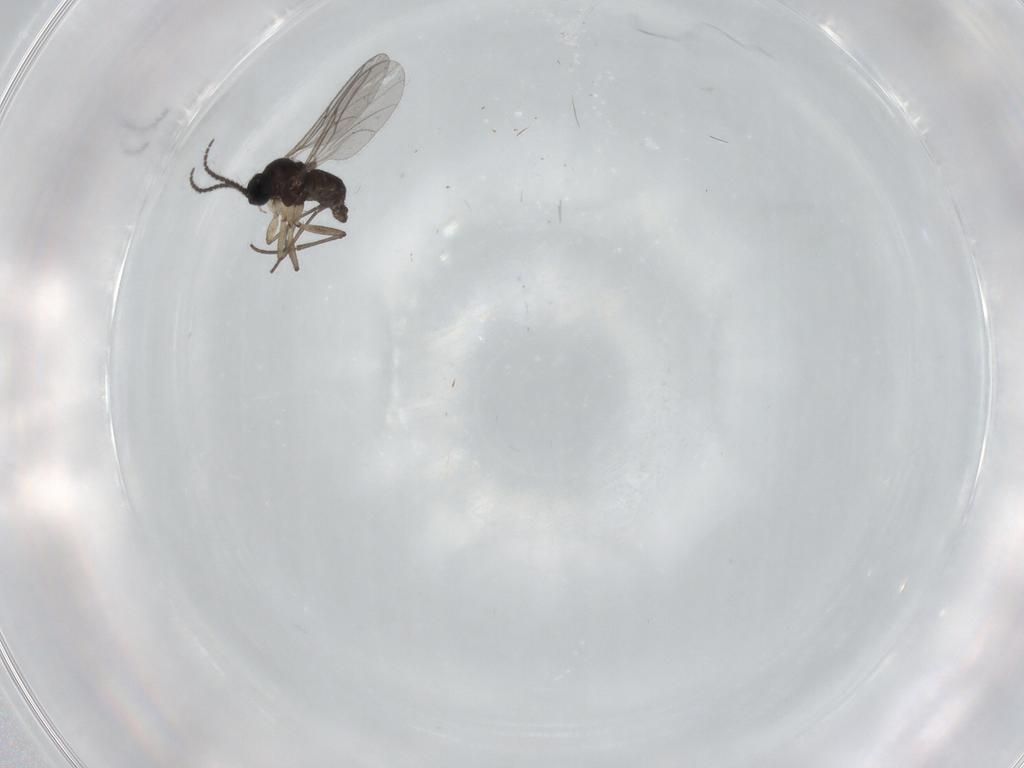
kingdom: Animalia
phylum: Arthropoda
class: Insecta
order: Diptera
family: Sciaridae
